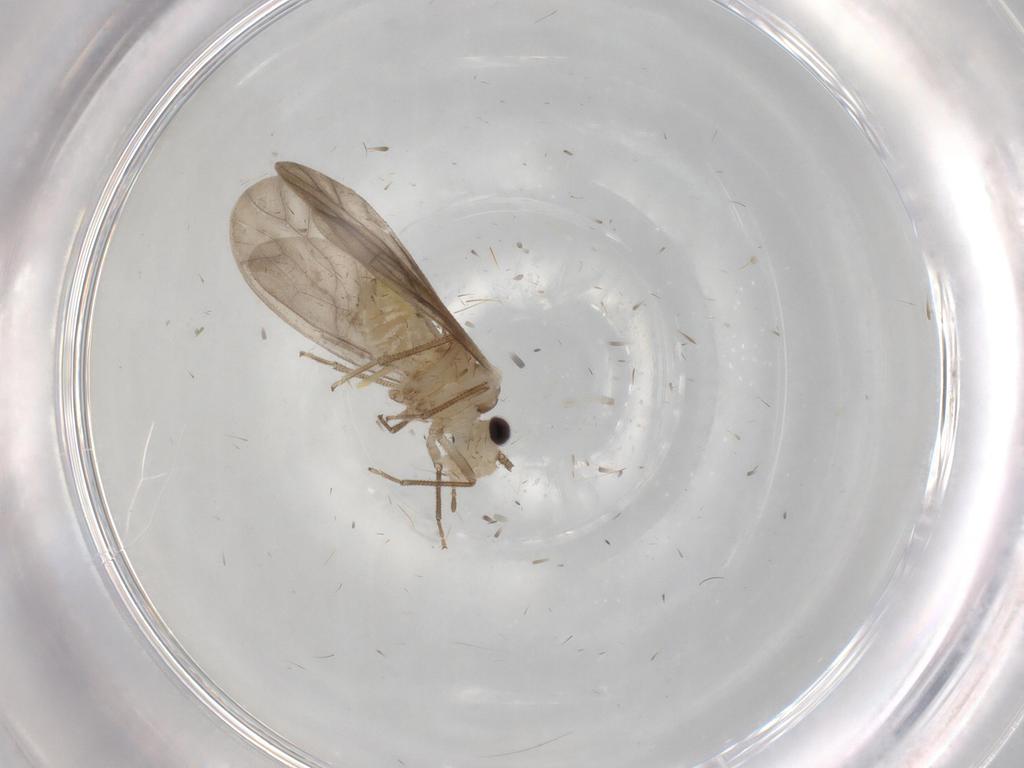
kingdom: Animalia
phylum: Arthropoda
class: Insecta
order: Psocodea
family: Caeciliusidae
